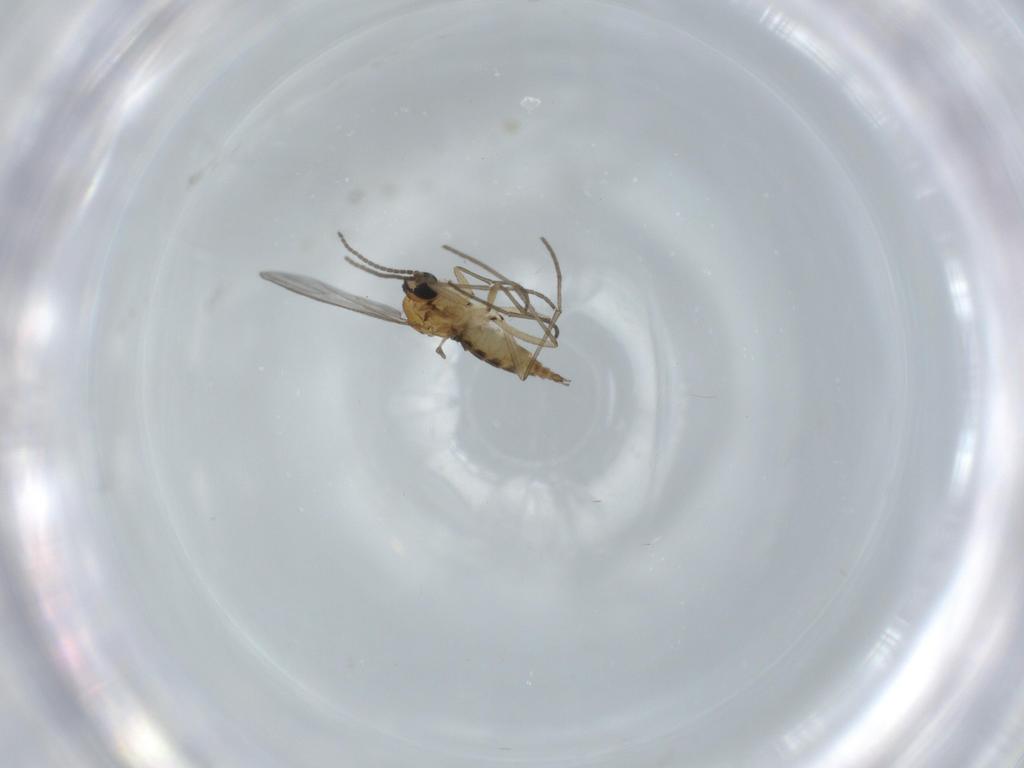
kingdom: Animalia
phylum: Arthropoda
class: Insecta
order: Diptera
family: Dolichopodidae
